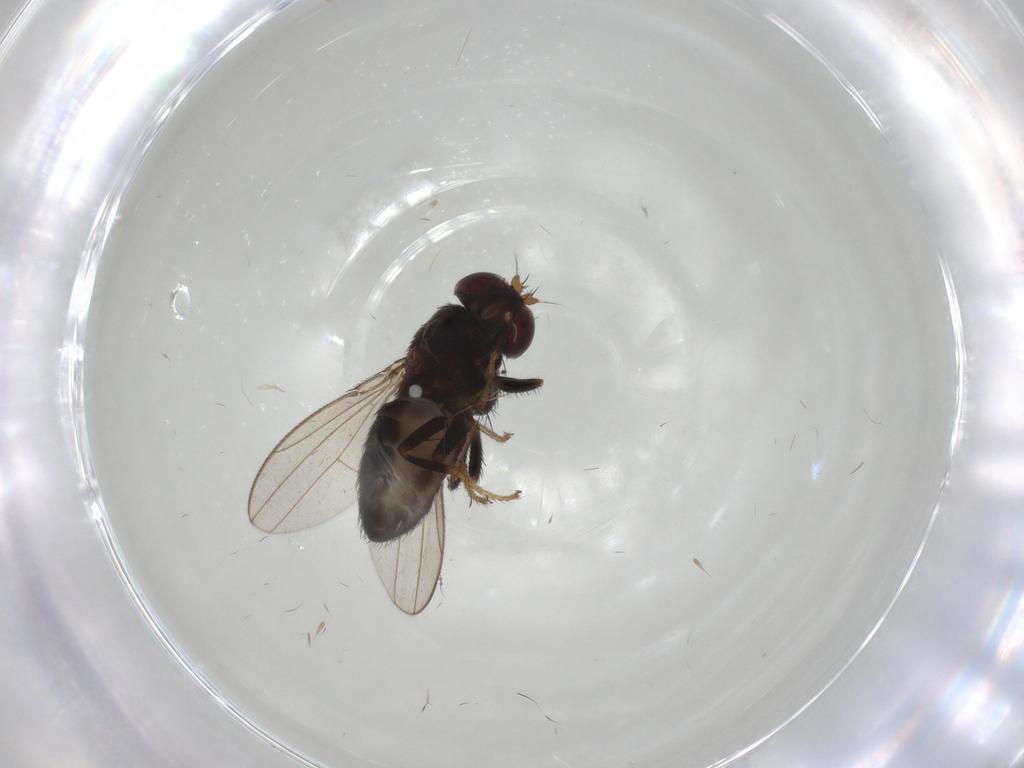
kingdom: Animalia
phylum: Arthropoda
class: Insecta
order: Diptera
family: Ephydridae
